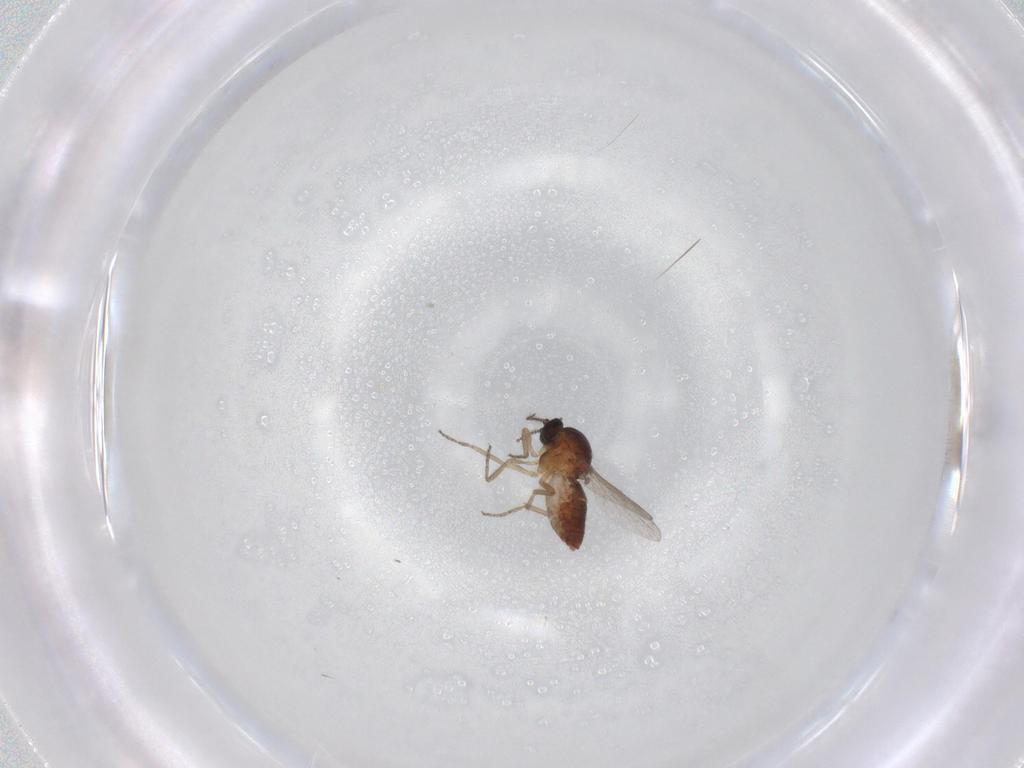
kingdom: Animalia
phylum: Arthropoda
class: Insecta
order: Diptera
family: Ceratopogonidae
